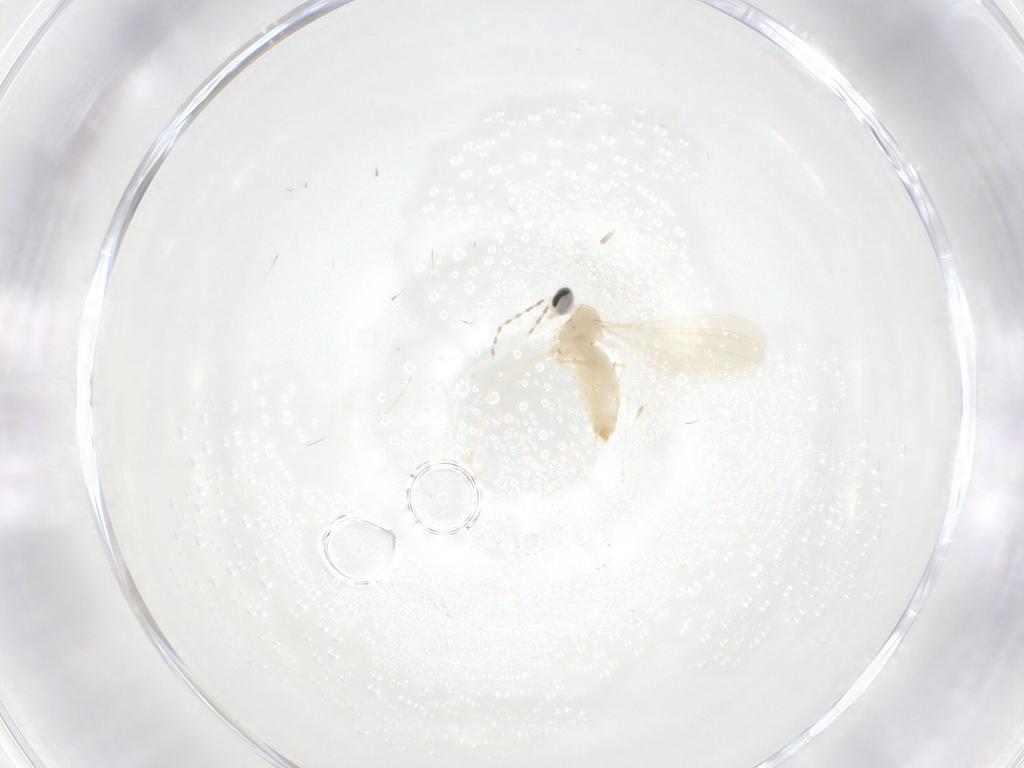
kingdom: Animalia
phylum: Arthropoda
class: Insecta
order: Diptera
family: Cecidomyiidae
